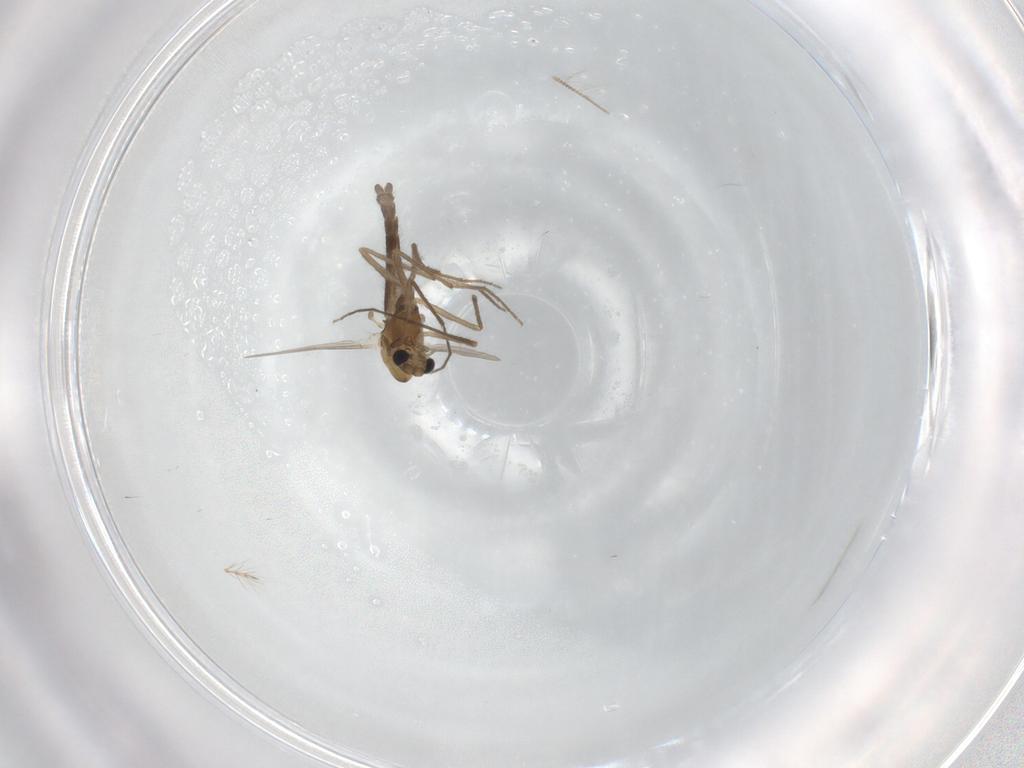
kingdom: Animalia
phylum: Arthropoda
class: Insecta
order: Diptera
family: Chironomidae
